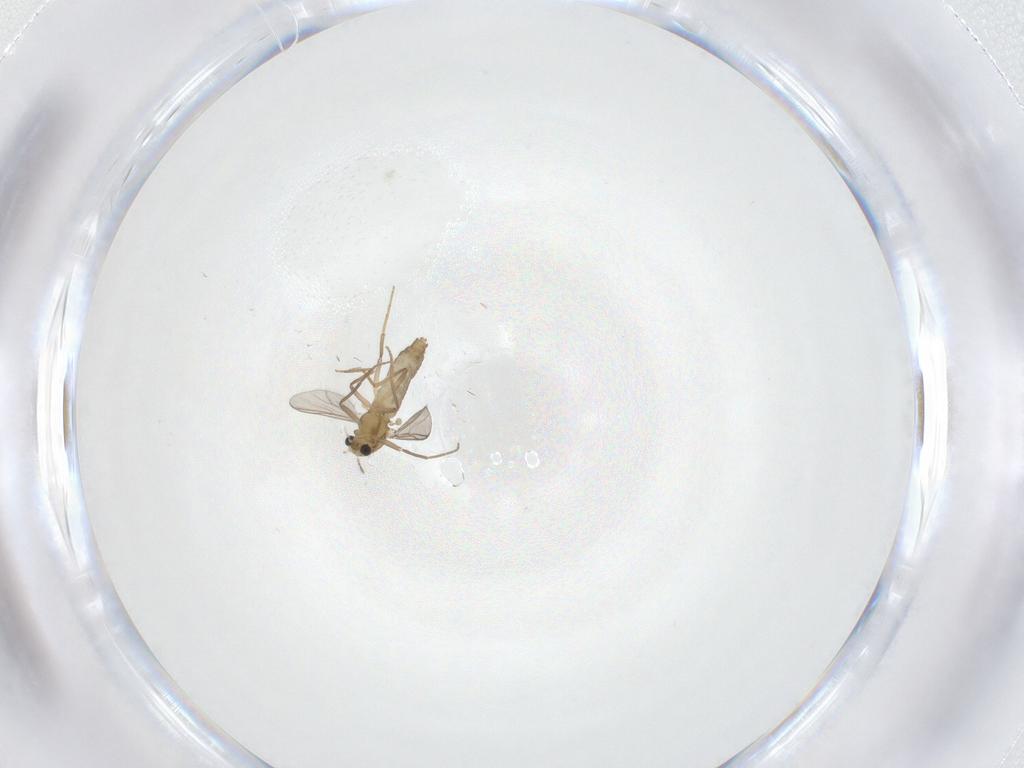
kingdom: Animalia
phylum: Arthropoda
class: Insecta
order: Diptera
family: Chironomidae
